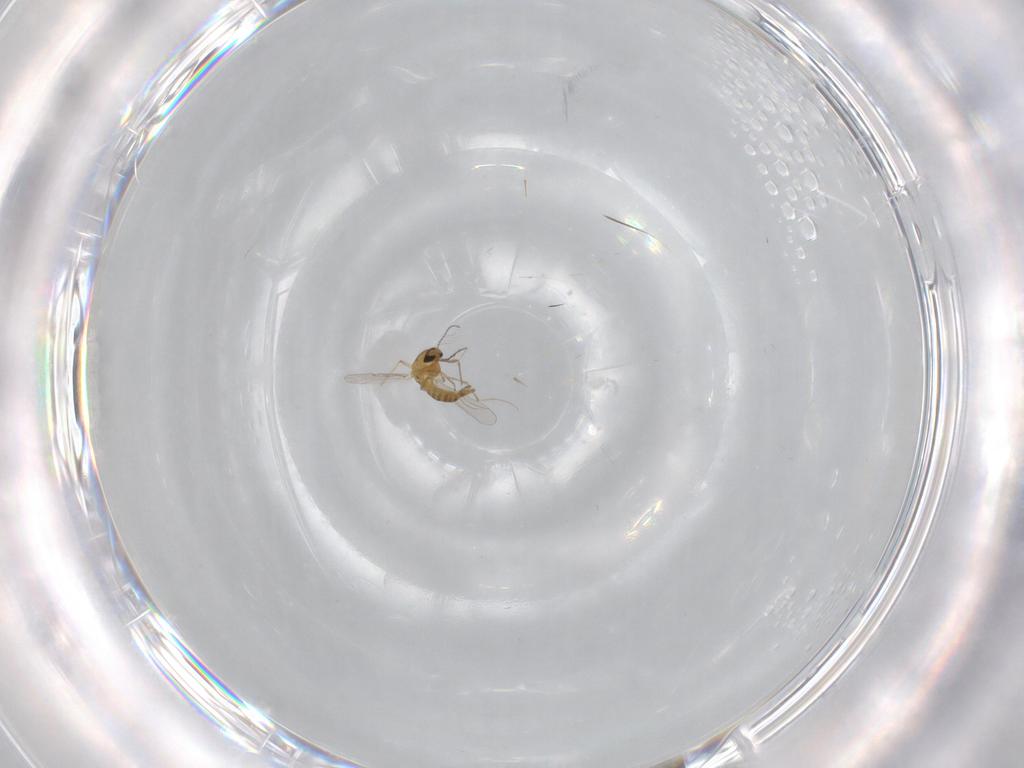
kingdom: Animalia
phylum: Arthropoda
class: Insecta
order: Diptera
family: Chironomidae
